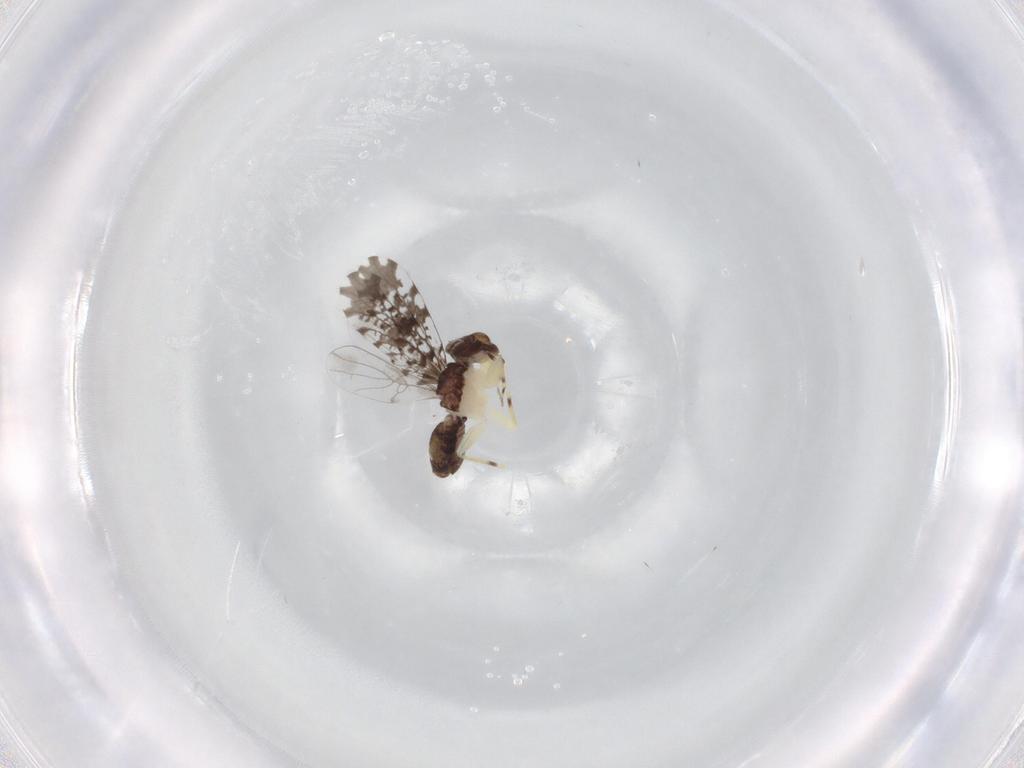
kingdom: Animalia
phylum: Arthropoda
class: Insecta
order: Psocodea
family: Psoquillidae
